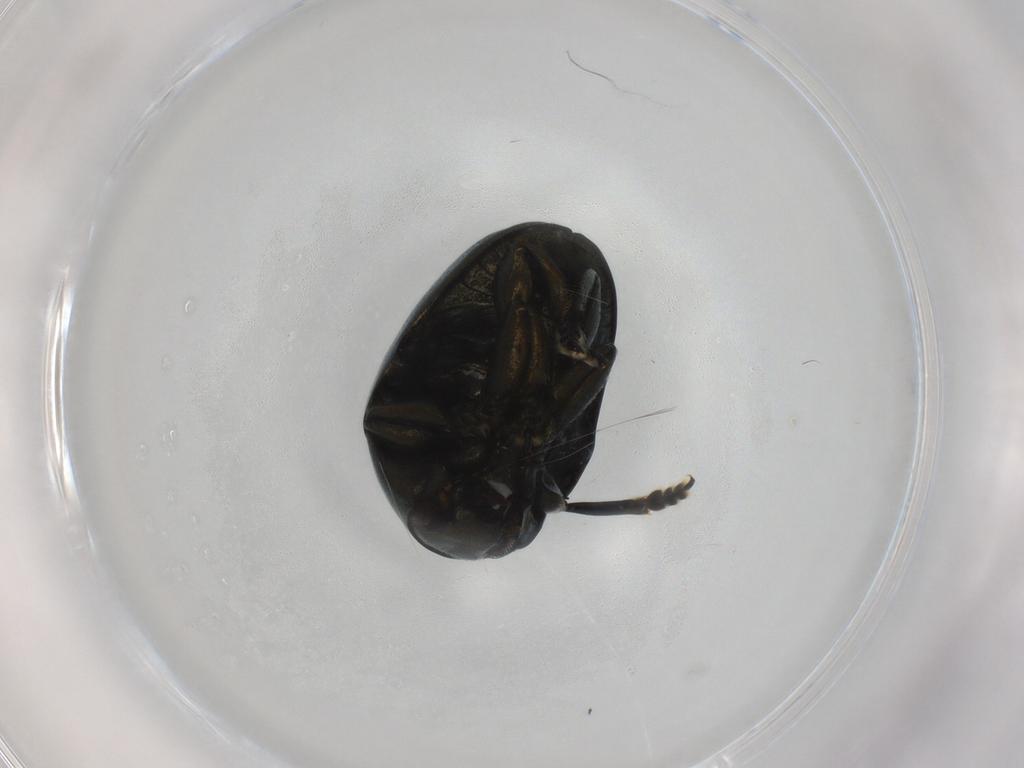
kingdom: Animalia
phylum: Arthropoda
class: Insecta
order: Coleoptera
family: Chrysomelidae
